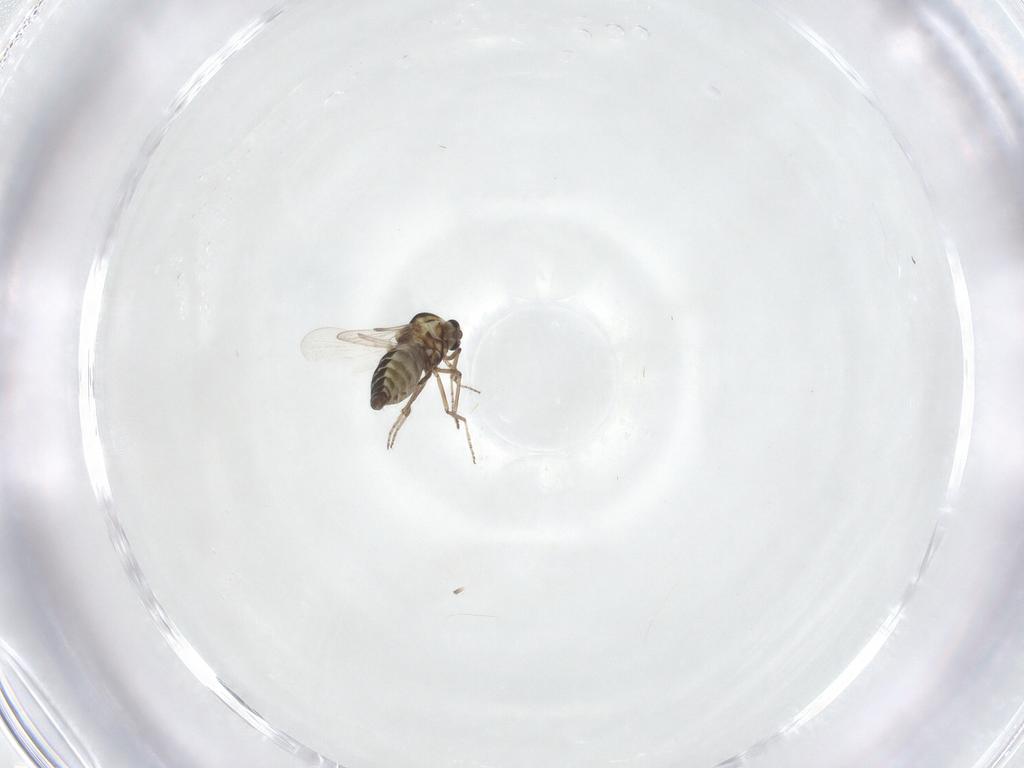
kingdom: Animalia
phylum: Arthropoda
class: Insecta
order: Diptera
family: Ceratopogonidae
